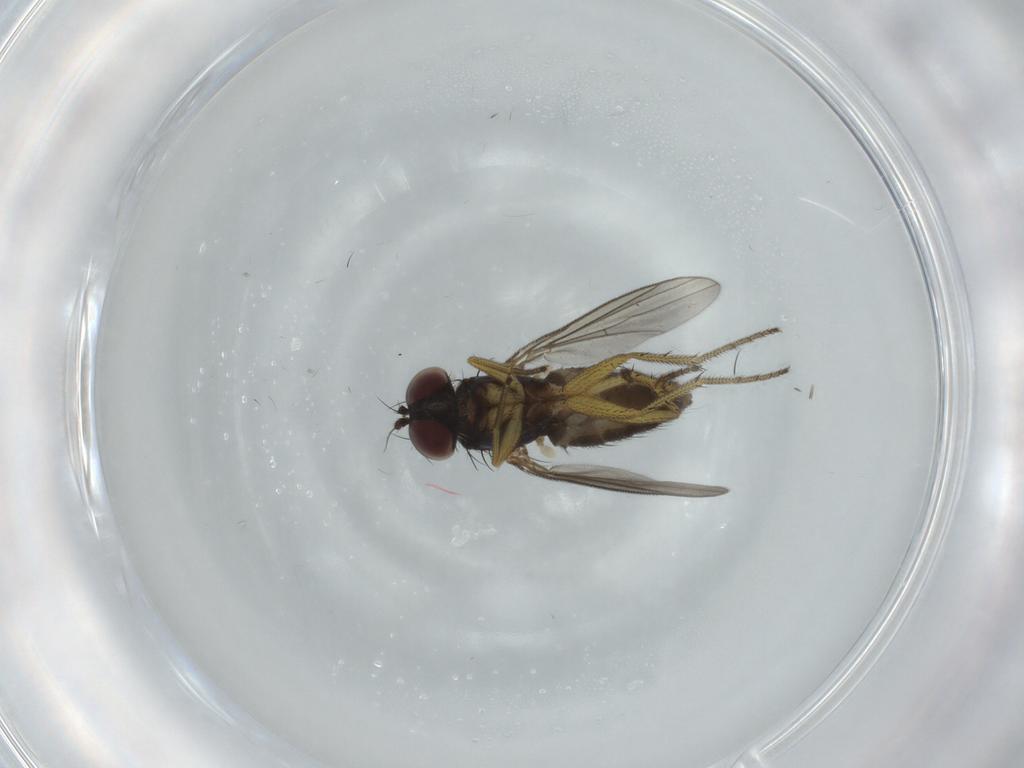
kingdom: Animalia
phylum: Arthropoda
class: Insecta
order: Diptera
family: Dolichopodidae
